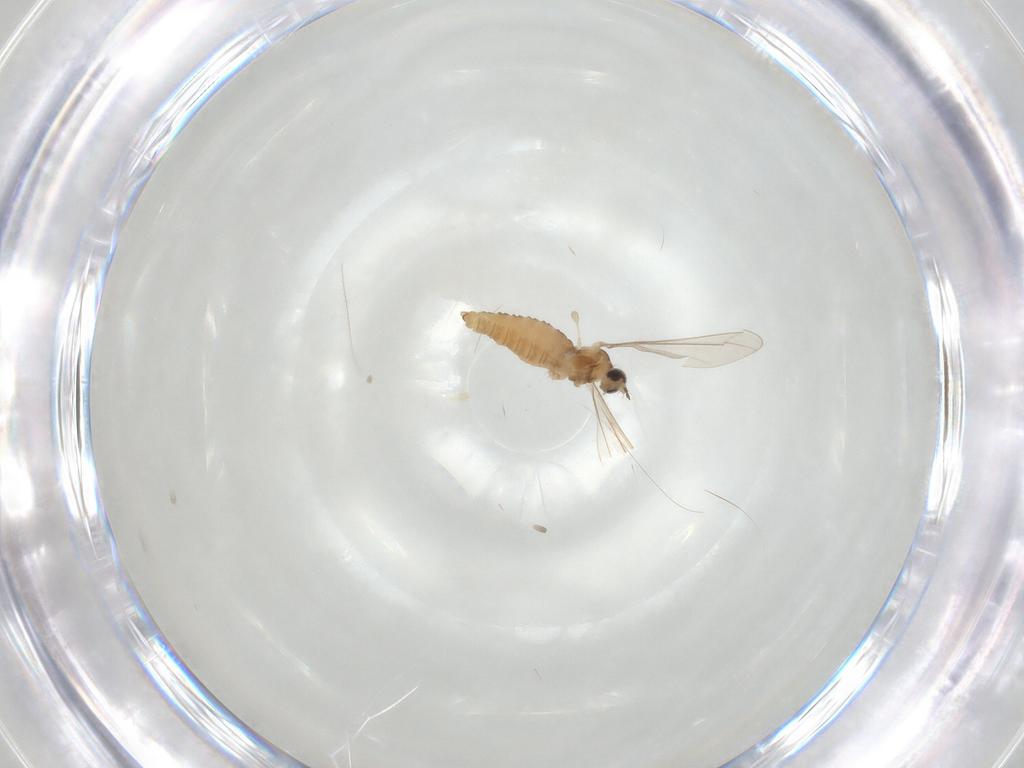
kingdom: Animalia
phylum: Arthropoda
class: Insecta
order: Diptera
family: Cecidomyiidae
